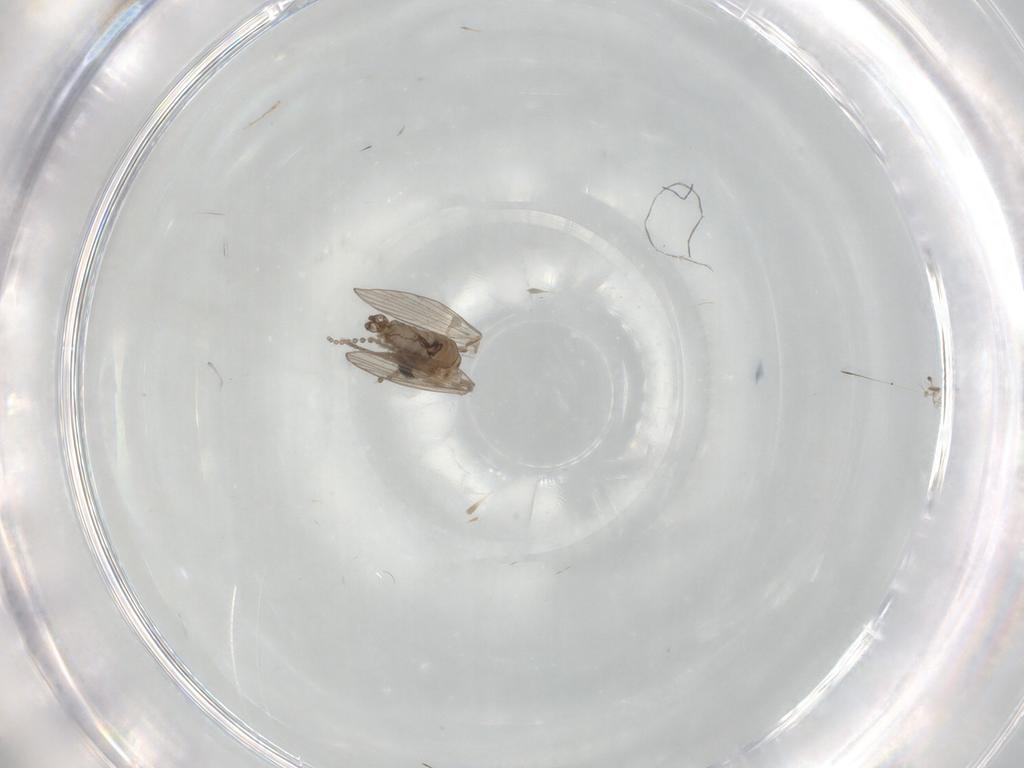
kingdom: Animalia
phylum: Arthropoda
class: Insecta
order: Diptera
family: Psychodidae
